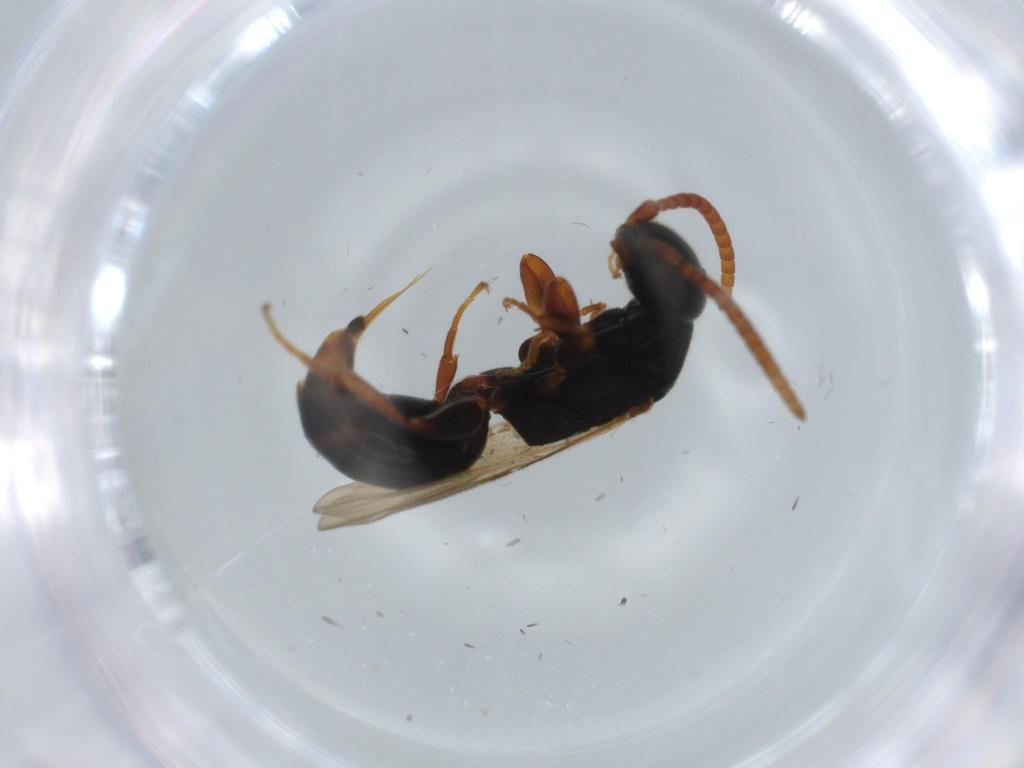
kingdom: Animalia
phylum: Arthropoda
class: Insecta
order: Hymenoptera
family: Bethylidae
